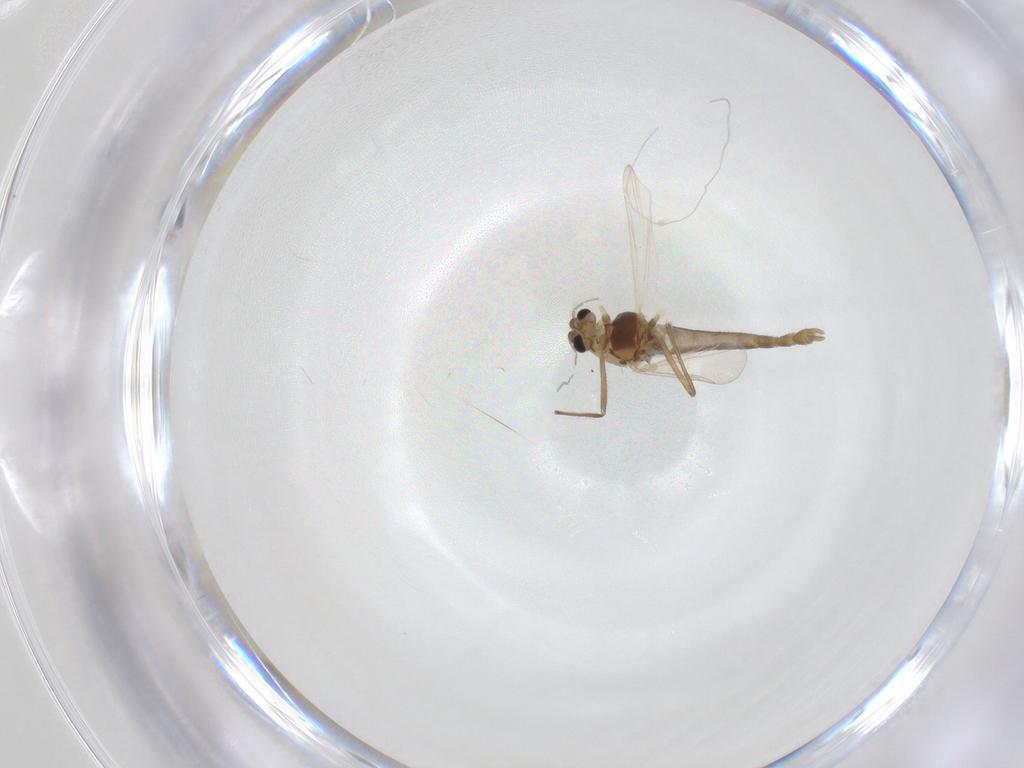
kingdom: Animalia
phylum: Arthropoda
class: Insecta
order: Diptera
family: Chironomidae
